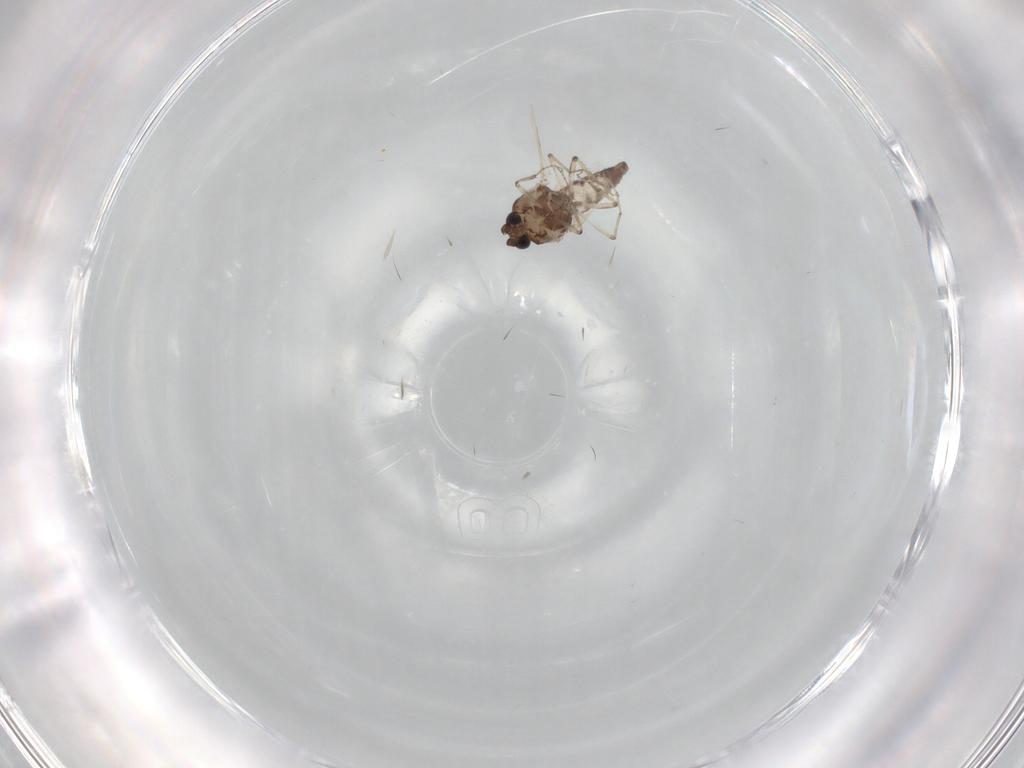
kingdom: Animalia
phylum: Arthropoda
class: Insecta
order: Diptera
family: Ceratopogonidae
